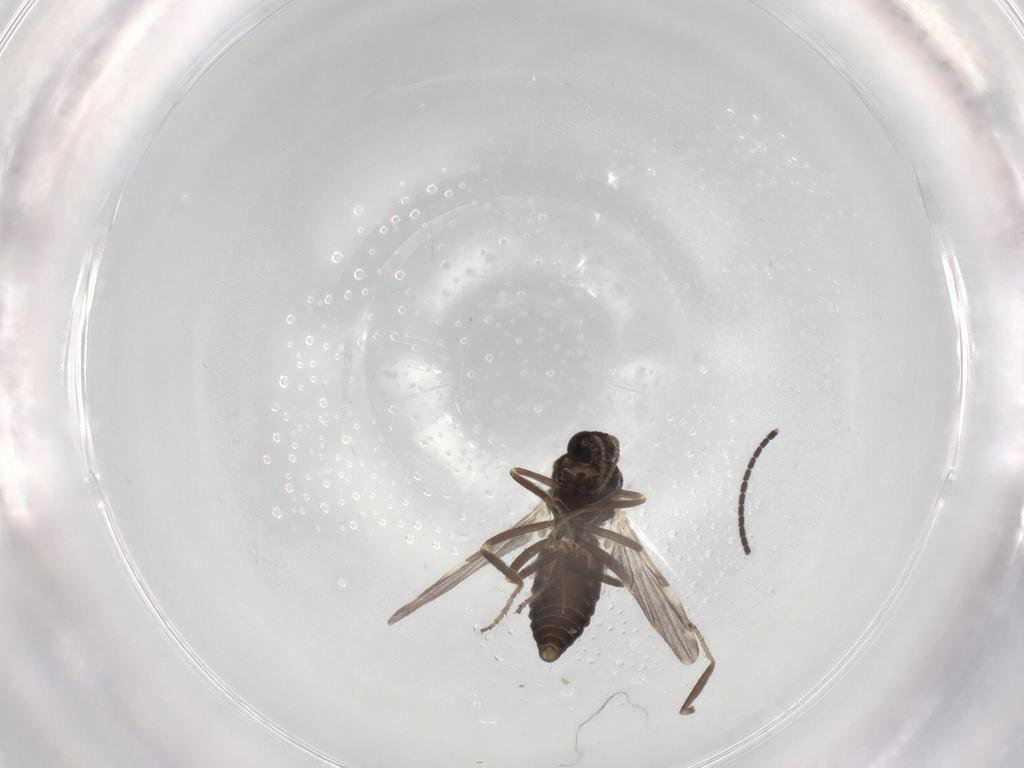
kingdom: Animalia
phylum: Arthropoda
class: Insecta
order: Diptera
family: Ceratopogonidae
